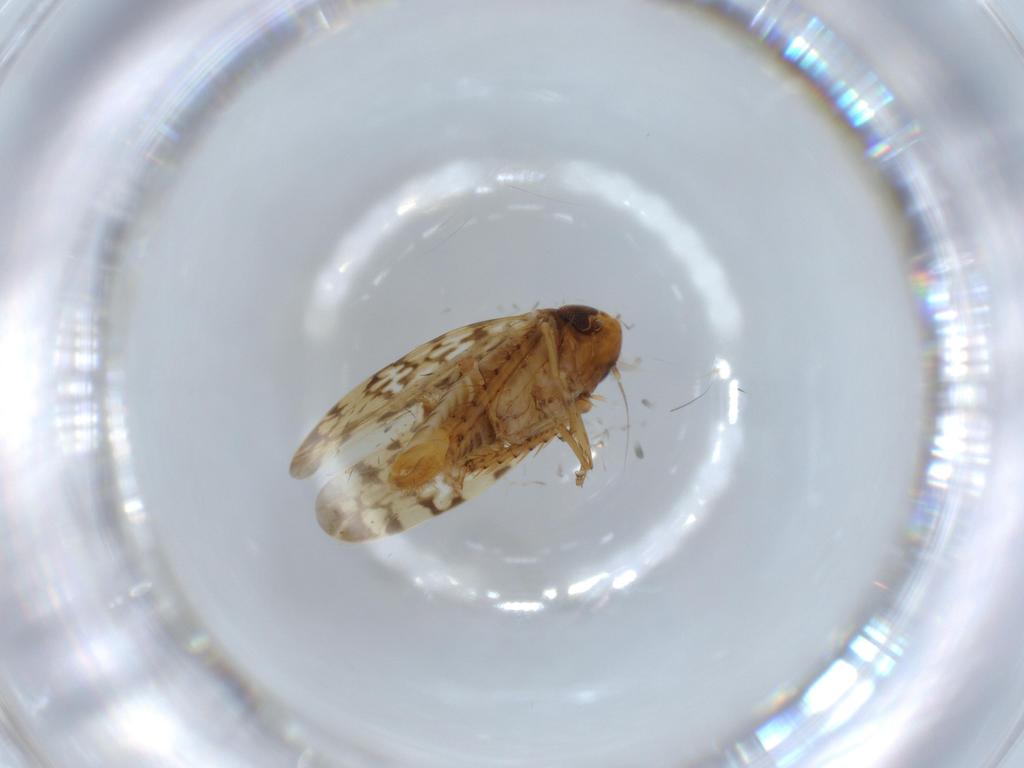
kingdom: Animalia
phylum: Arthropoda
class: Insecta
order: Hemiptera
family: Cicadellidae
